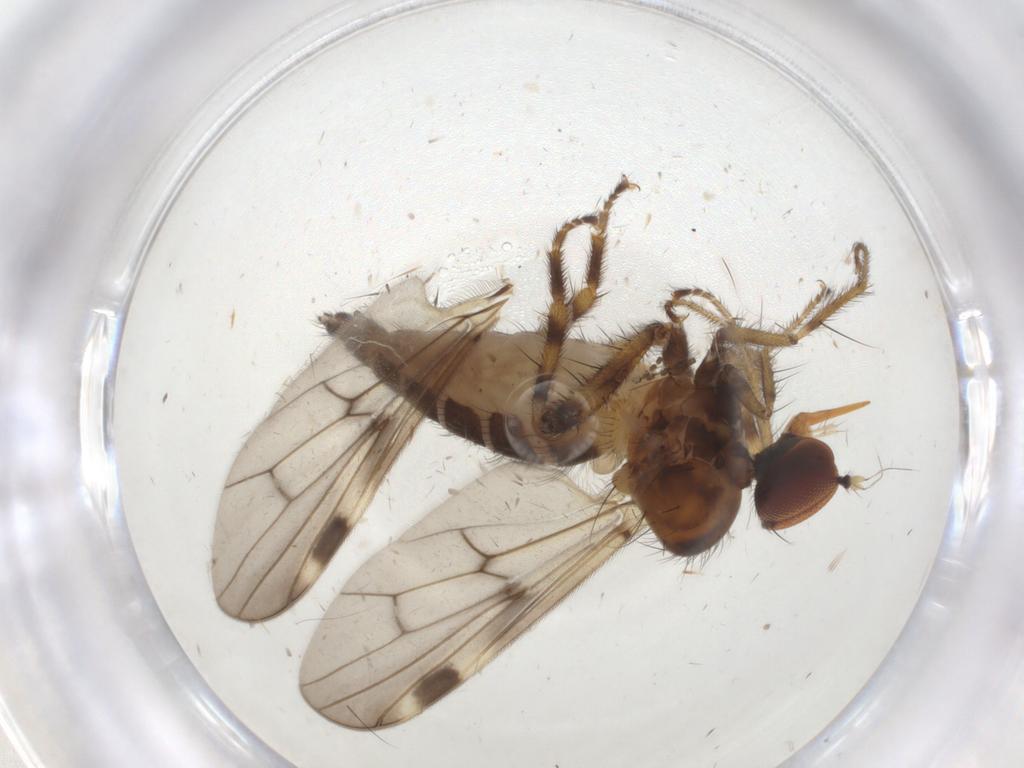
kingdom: Animalia
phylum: Arthropoda
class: Insecta
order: Diptera
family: Hybotidae
